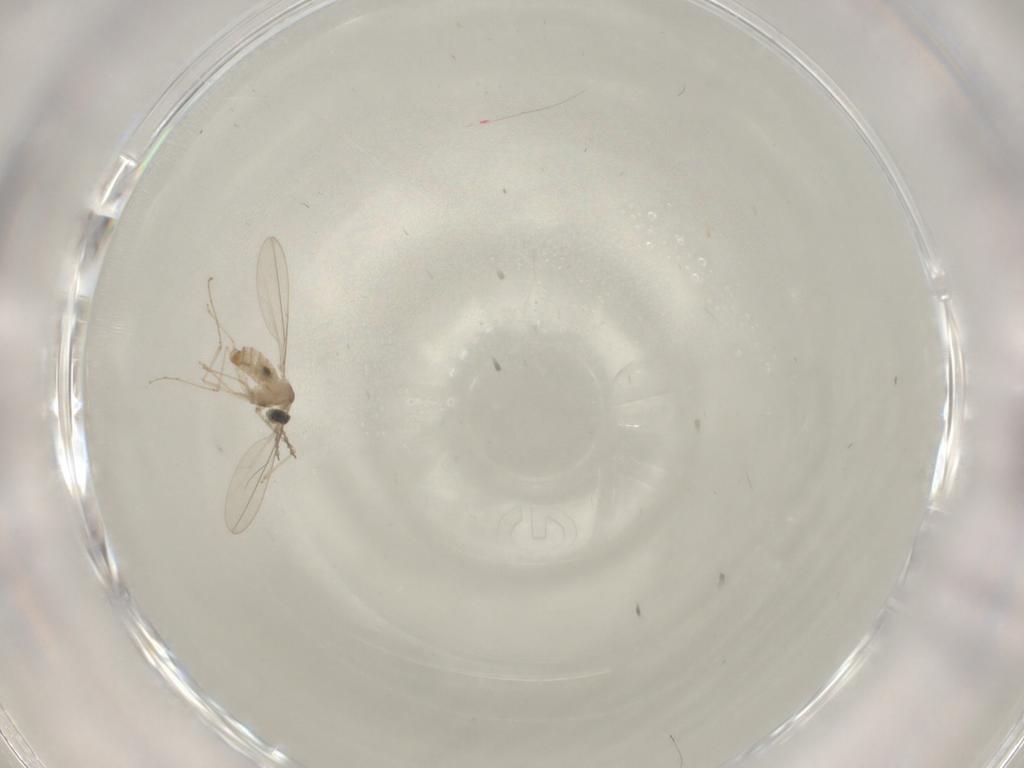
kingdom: Animalia
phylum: Arthropoda
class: Insecta
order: Diptera
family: Cecidomyiidae
